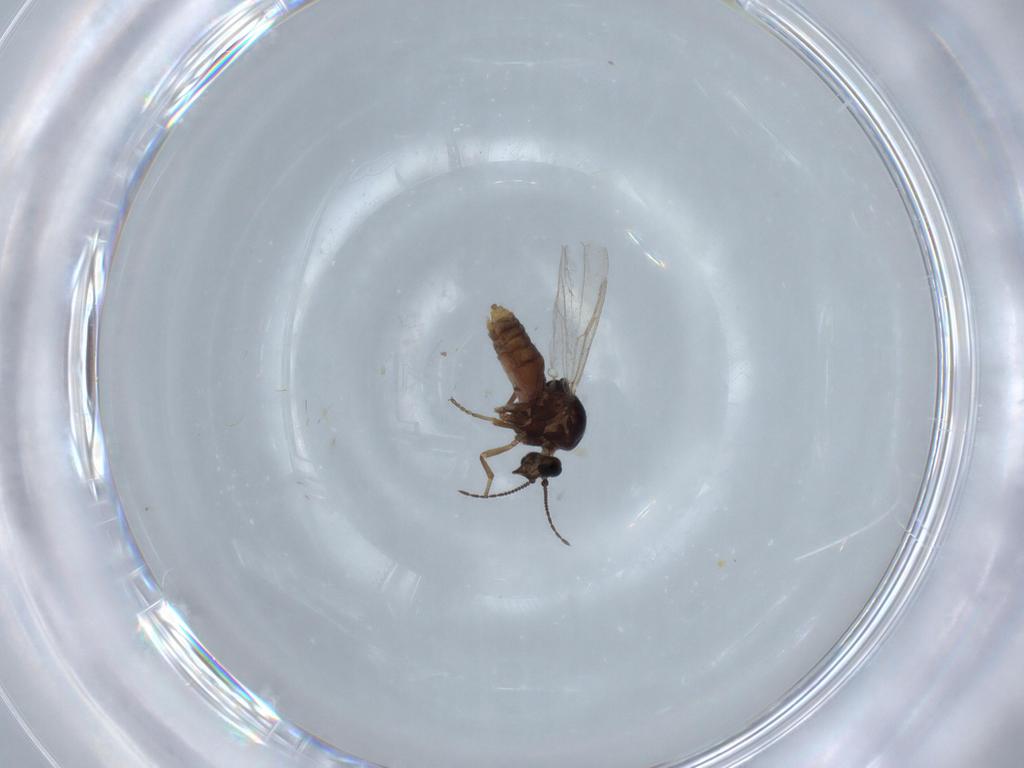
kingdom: Animalia
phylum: Arthropoda
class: Insecta
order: Diptera
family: Ceratopogonidae
